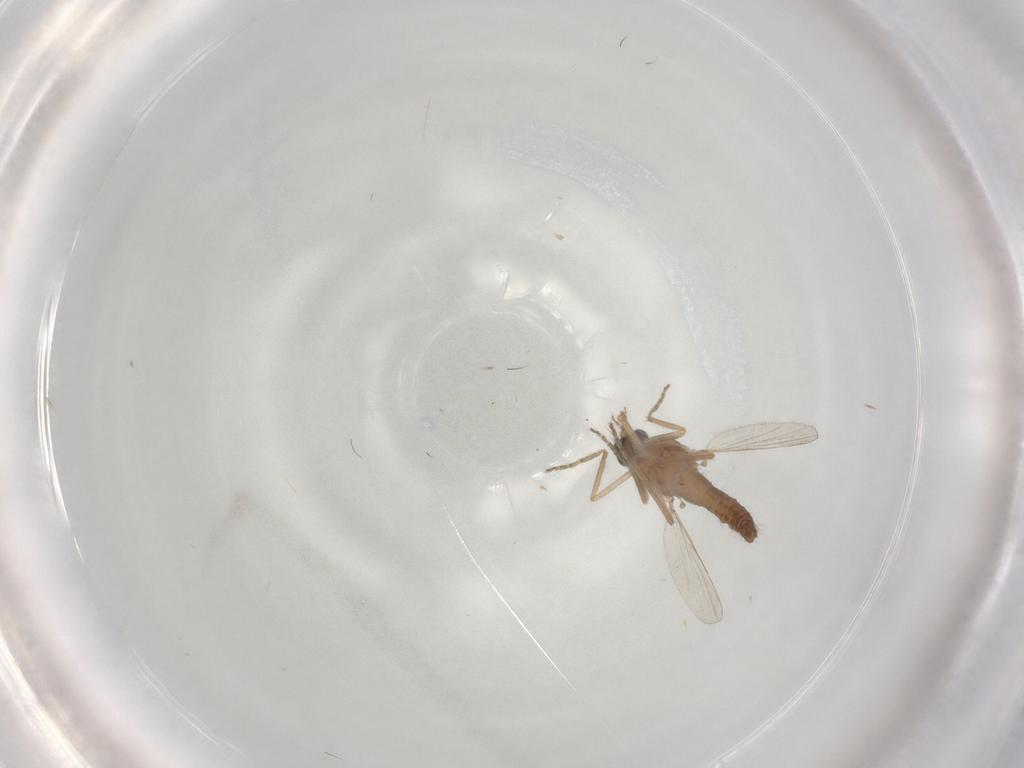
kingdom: Animalia
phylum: Arthropoda
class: Insecta
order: Diptera
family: Ceratopogonidae
